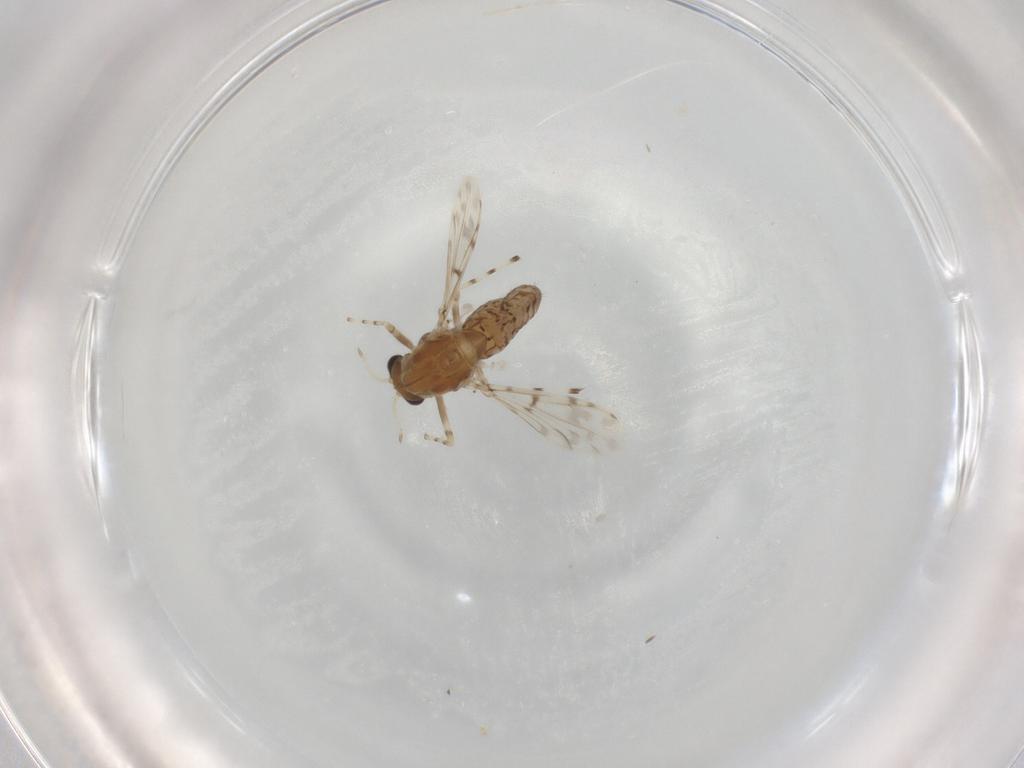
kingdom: Animalia
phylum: Arthropoda
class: Insecta
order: Diptera
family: Chironomidae
